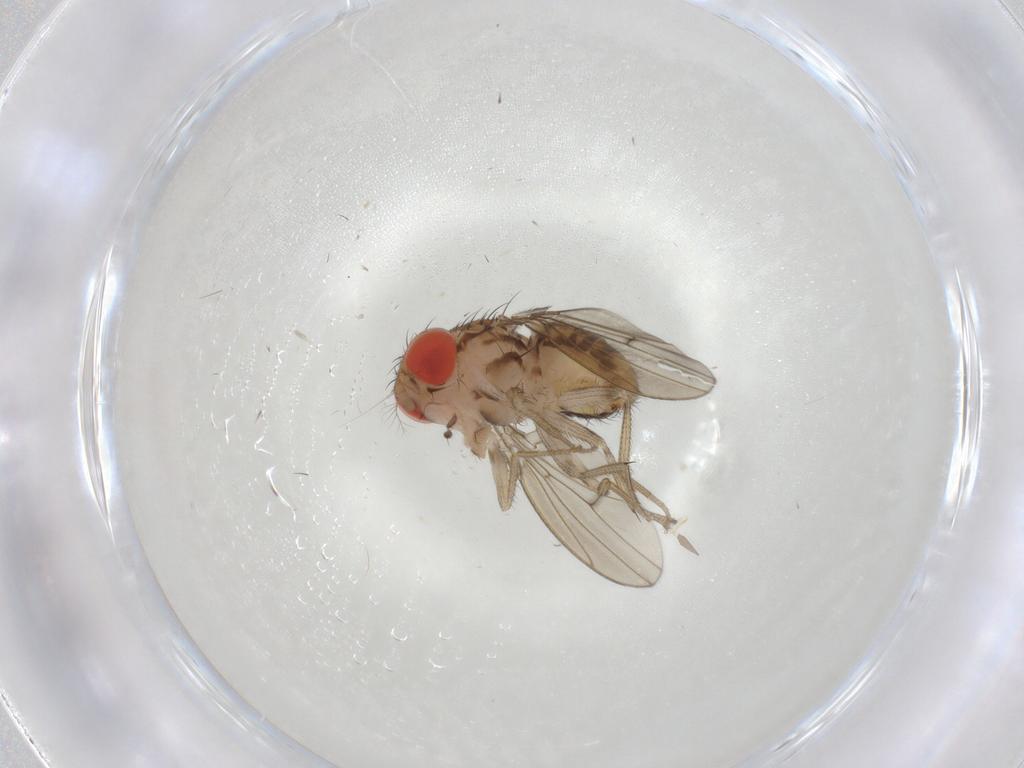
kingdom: Animalia
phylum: Arthropoda
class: Insecta
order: Diptera
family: Drosophilidae
